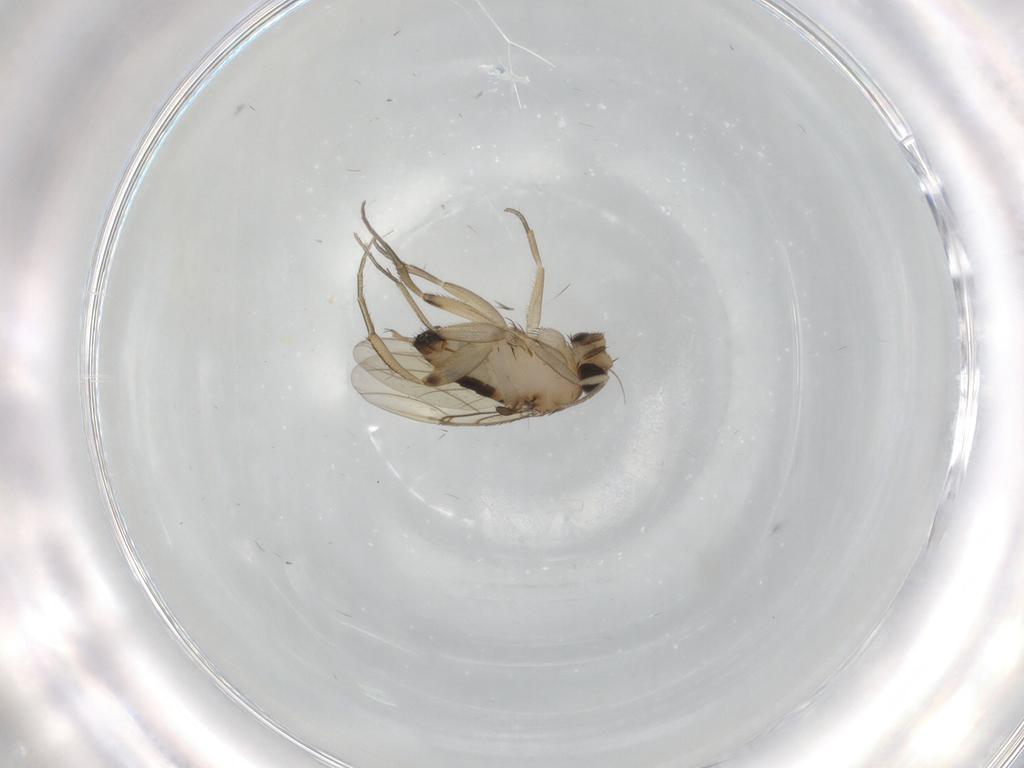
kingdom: Animalia
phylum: Arthropoda
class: Insecta
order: Diptera
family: Phoridae
